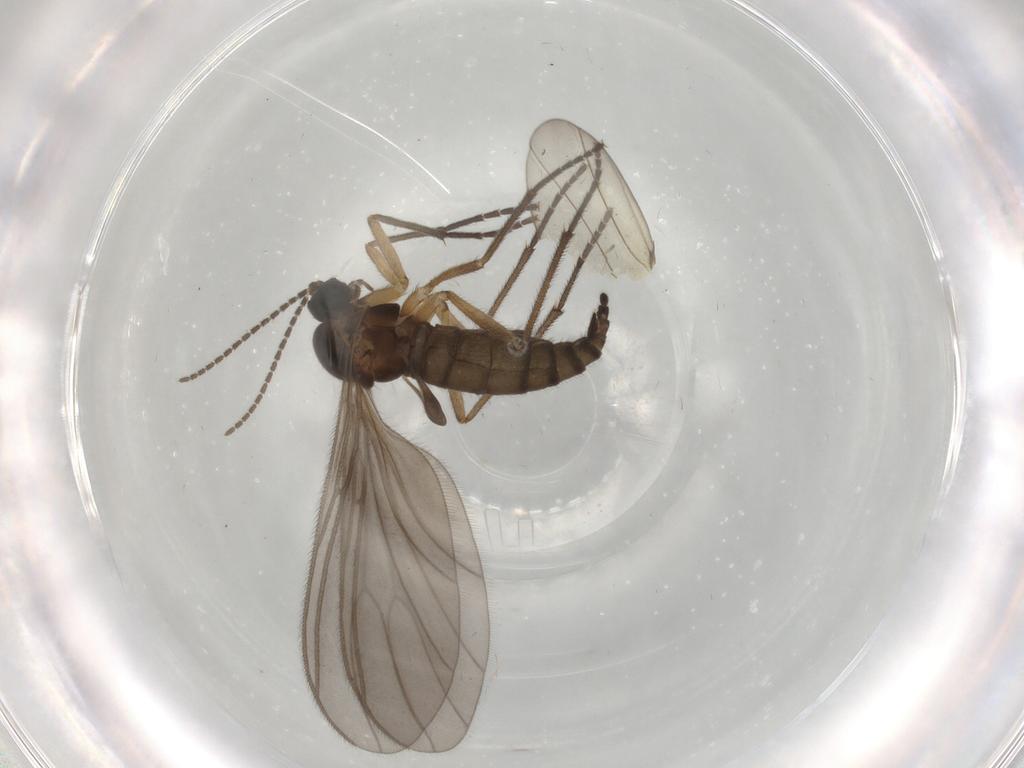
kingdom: Animalia
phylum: Arthropoda
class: Insecta
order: Diptera
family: Sciaridae
